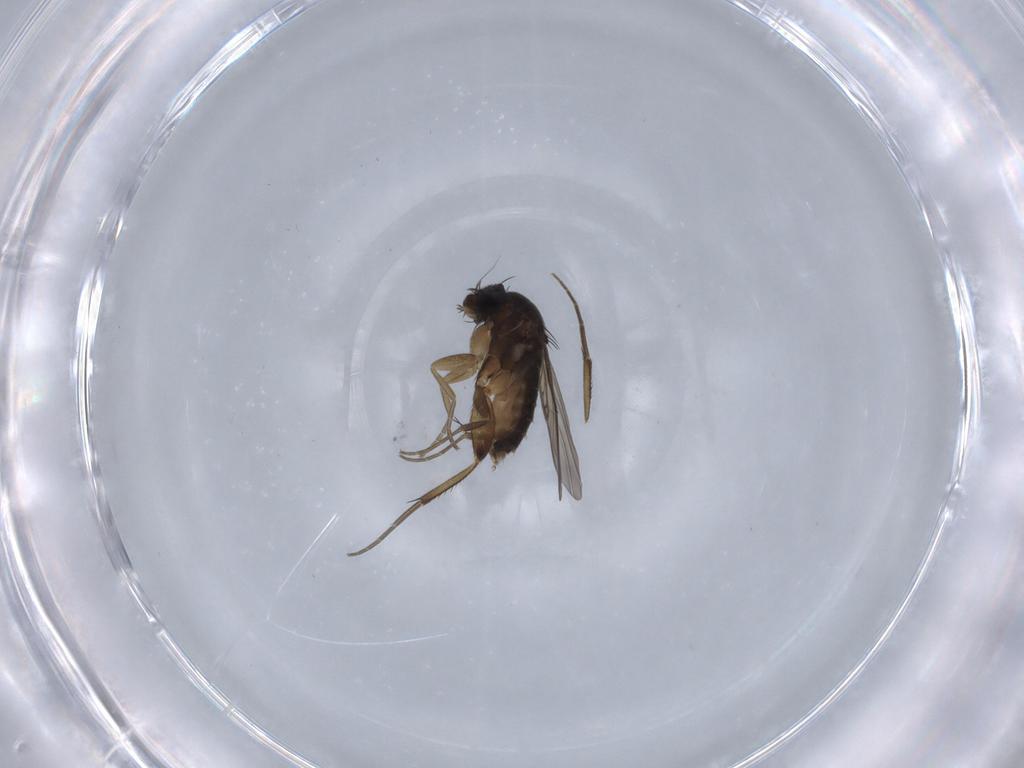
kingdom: Animalia
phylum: Arthropoda
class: Insecta
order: Diptera
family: Phoridae
